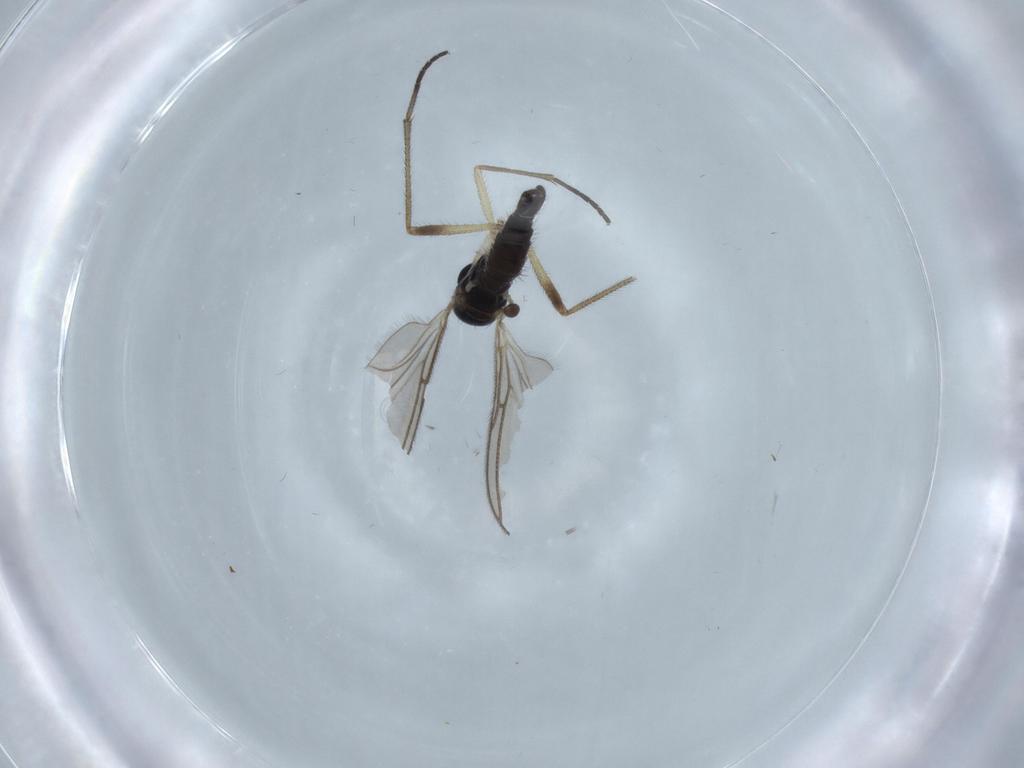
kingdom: Animalia
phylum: Arthropoda
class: Insecta
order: Diptera
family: Sciaridae
